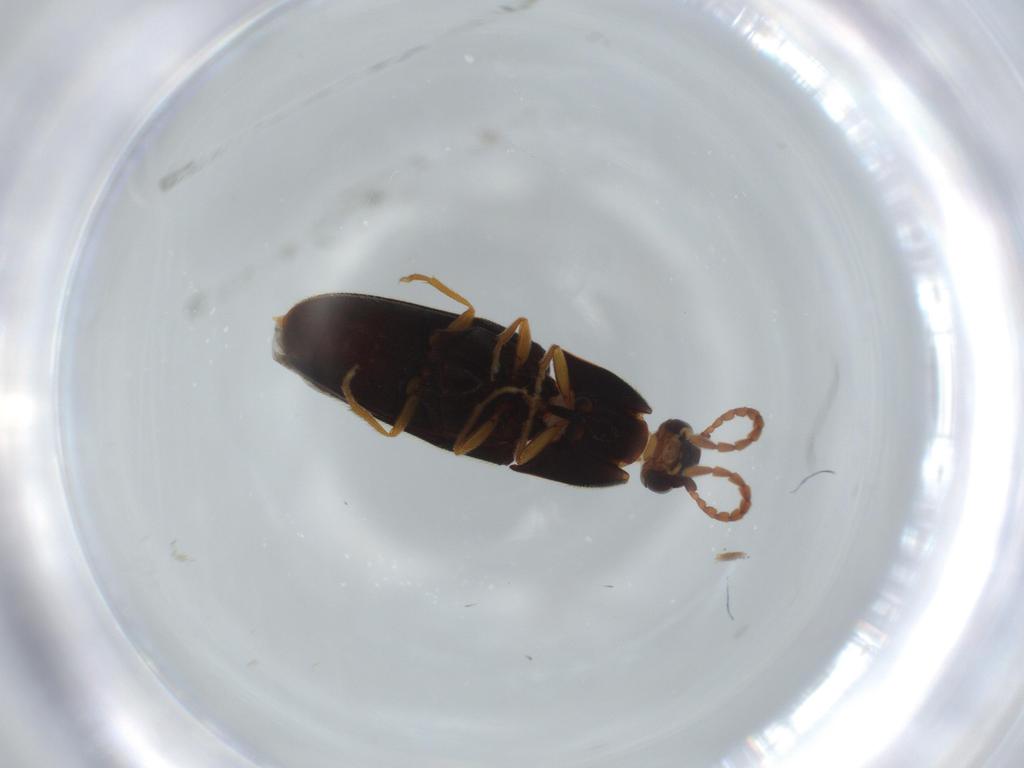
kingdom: Animalia
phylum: Arthropoda
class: Insecta
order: Coleoptera
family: Elateridae
